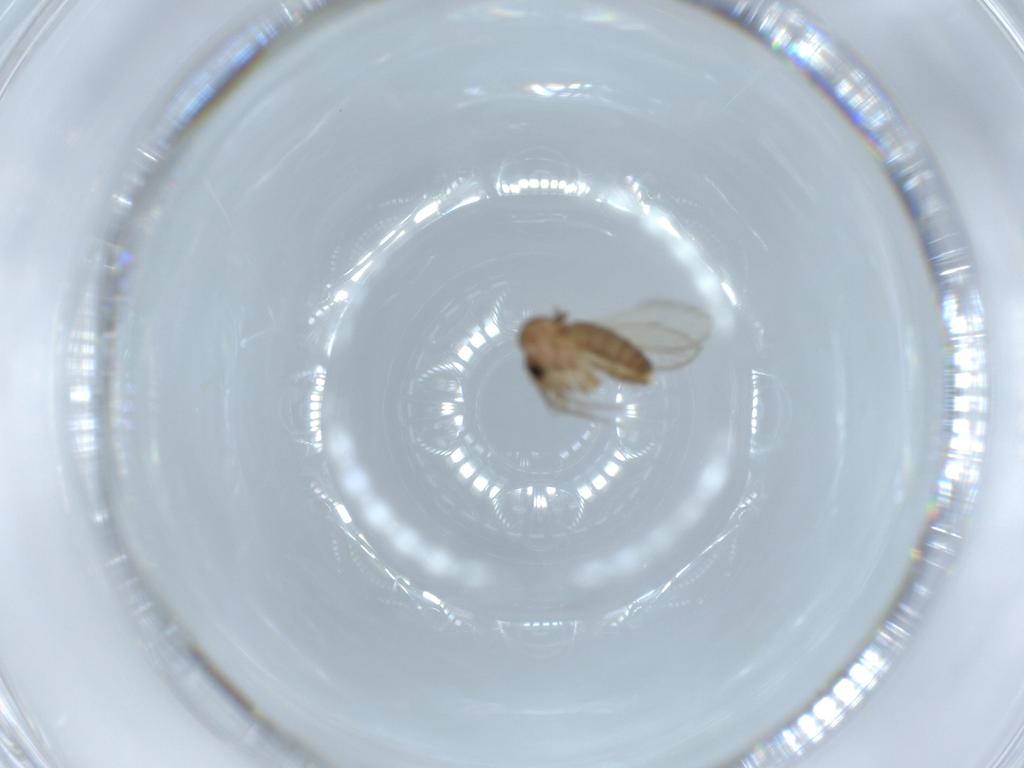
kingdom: Animalia
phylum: Arthropoda
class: Insecta
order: Diptera
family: Psychodidae
